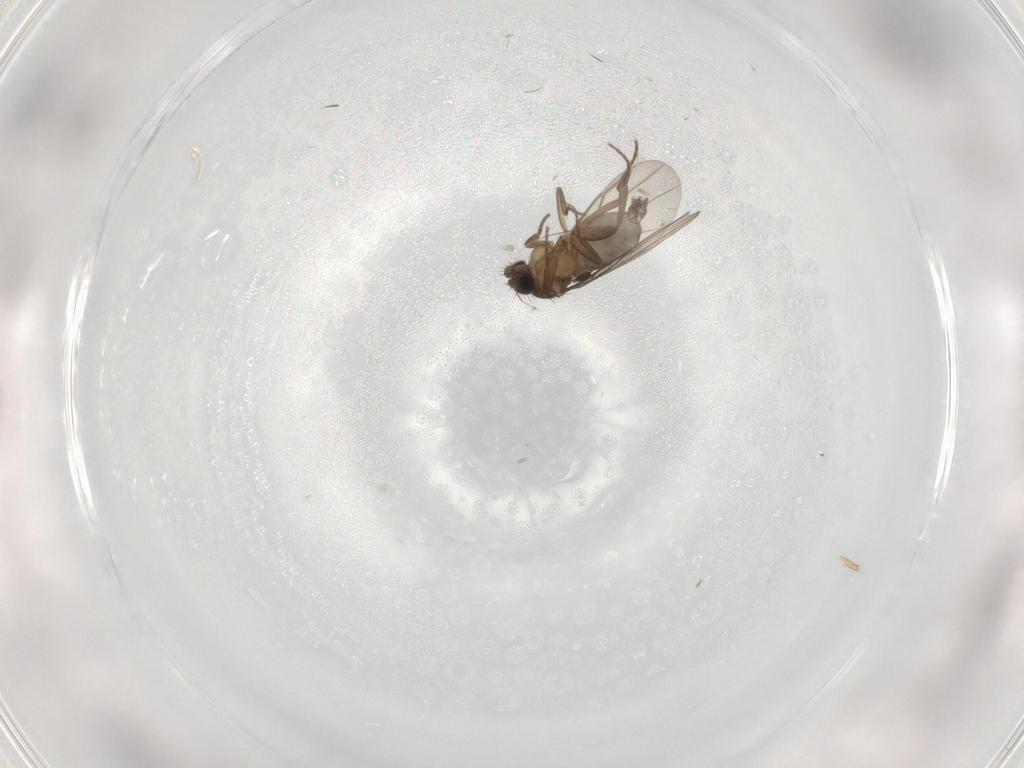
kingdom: Animalia
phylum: Arthropoda
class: Insecta
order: Diptera
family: Phoridae
